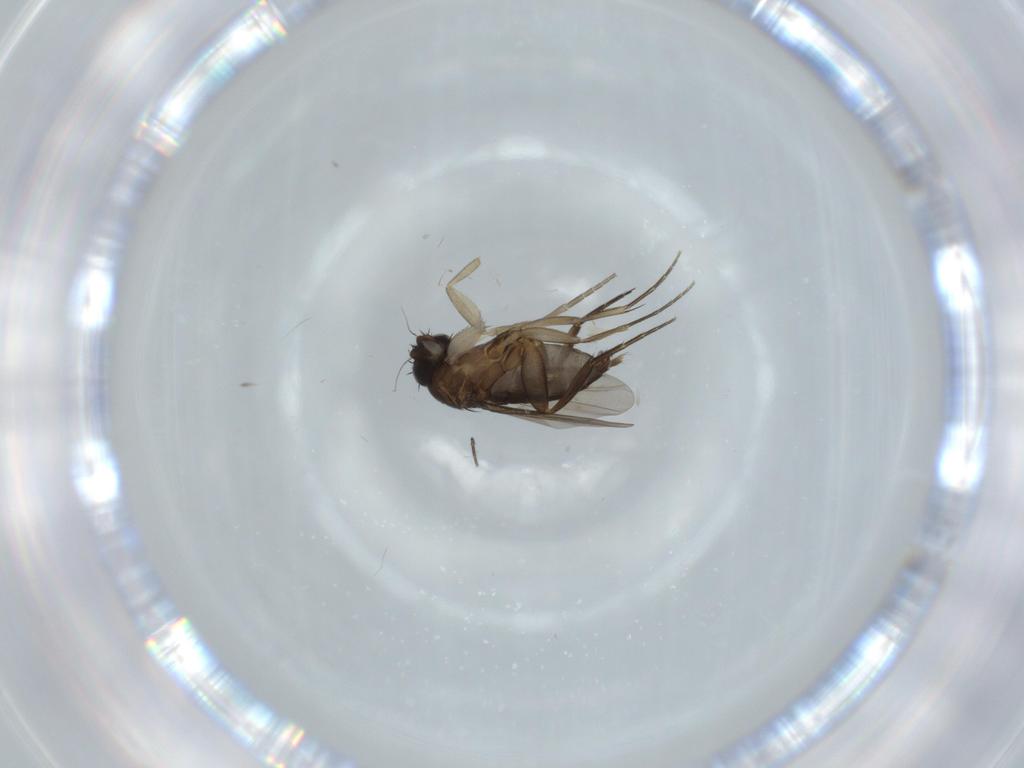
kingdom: Animalia
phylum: Arthropoda
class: Insecta
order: Diptera
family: Phoridae
